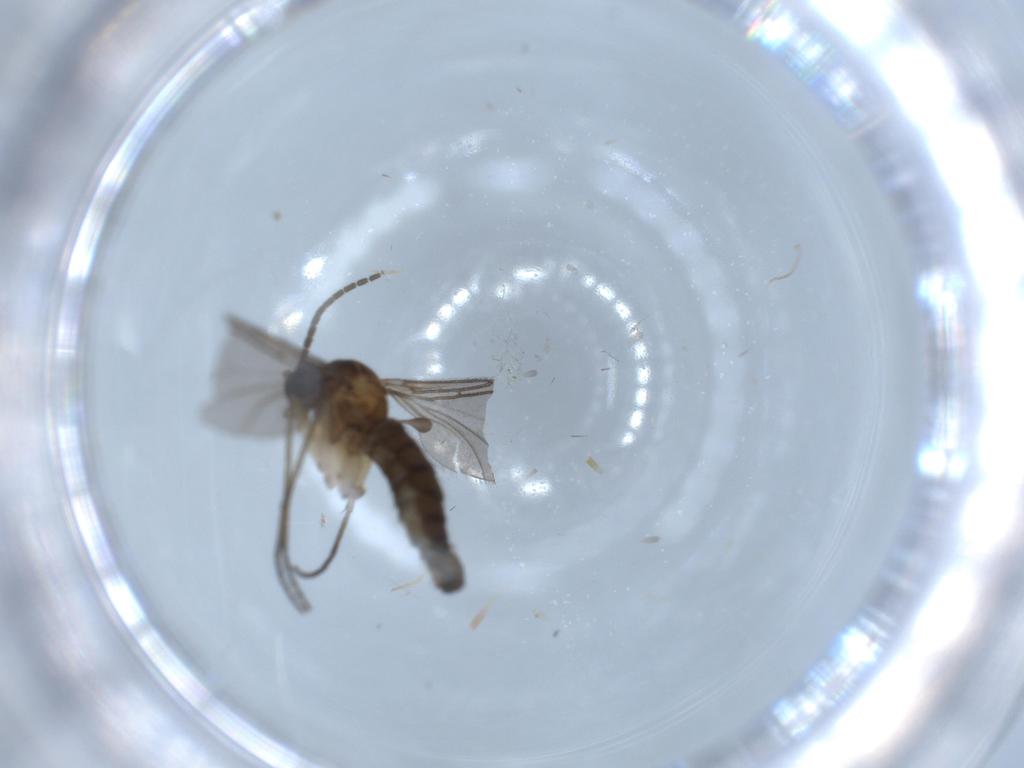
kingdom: Animalia
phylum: Arthropoda
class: Insecta
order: Diptera
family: Sciaridae
